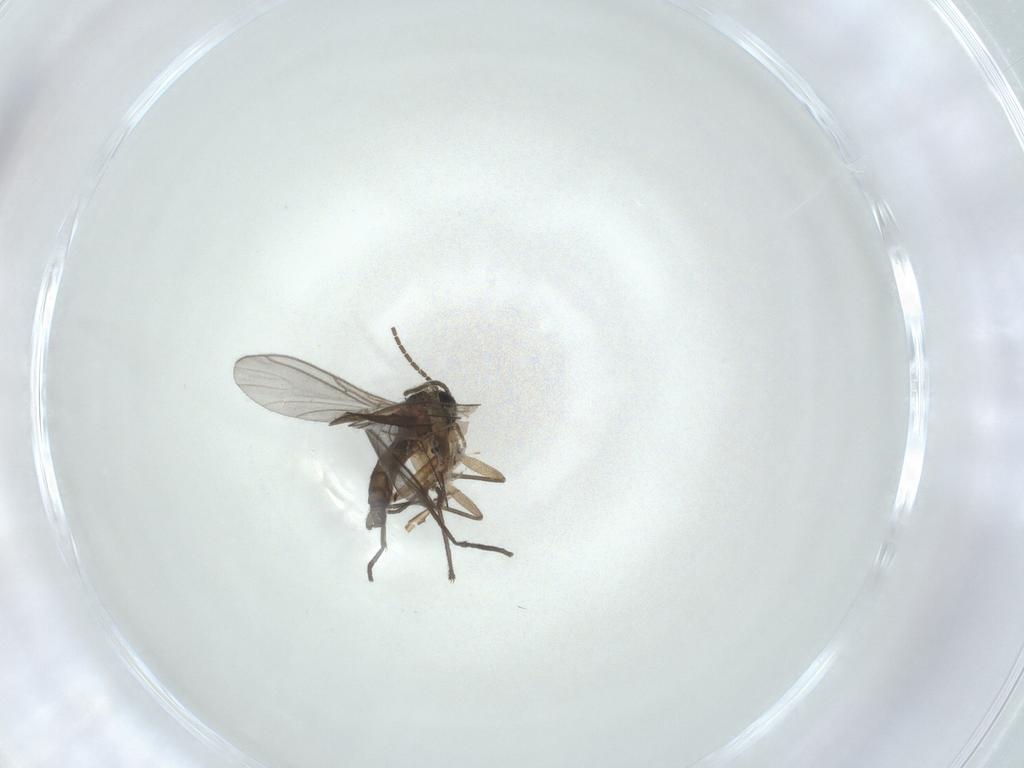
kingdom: Animalia
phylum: Arthropoda
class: Insecta
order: Diptera
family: Sciaridae
